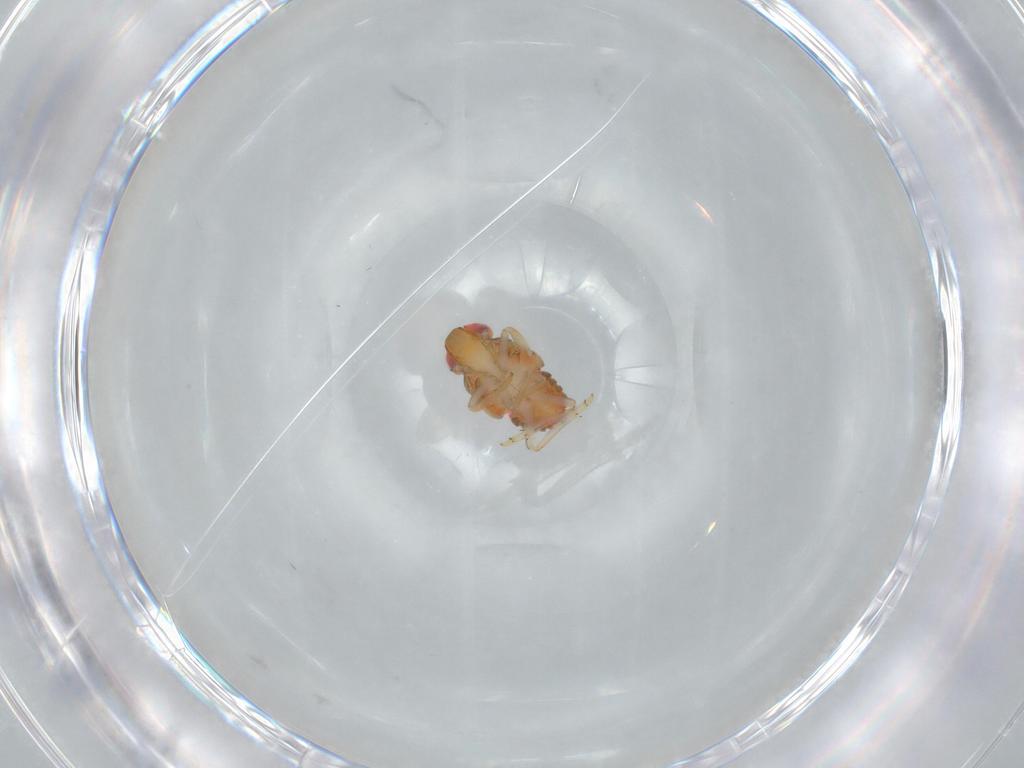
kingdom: Animalia
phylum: Arthropoda
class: Insecta
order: Hemiptera
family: Issidae
